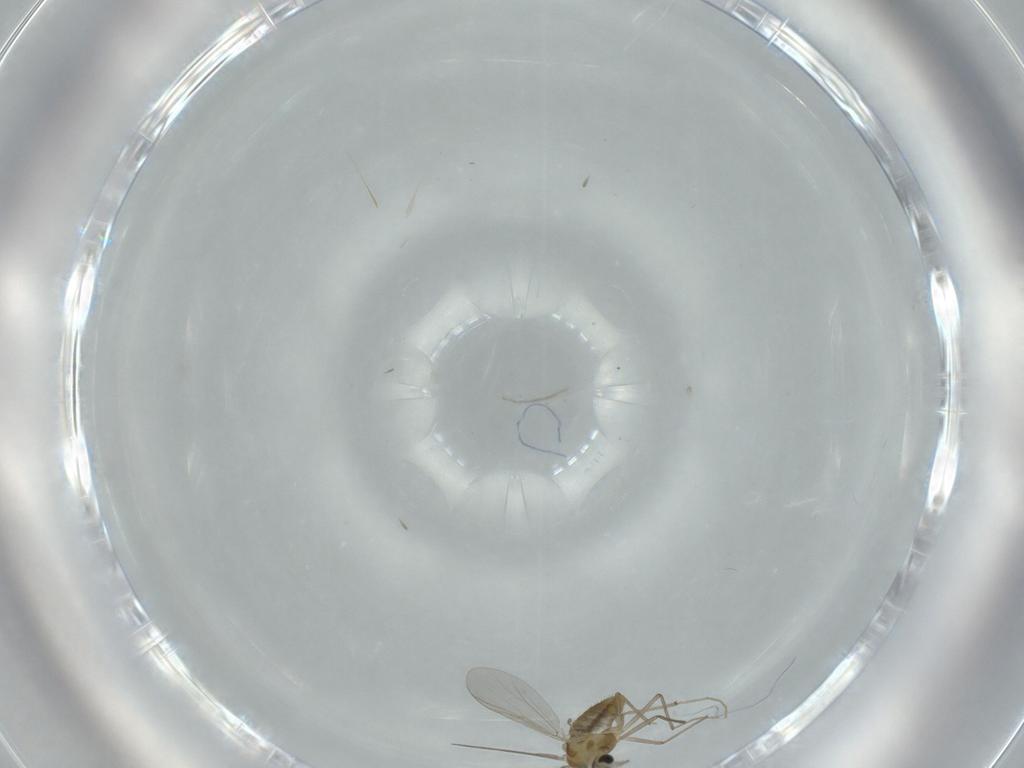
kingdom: Animalia
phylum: Arthropoda
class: Insecta
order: Diptera
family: Chironomidae
